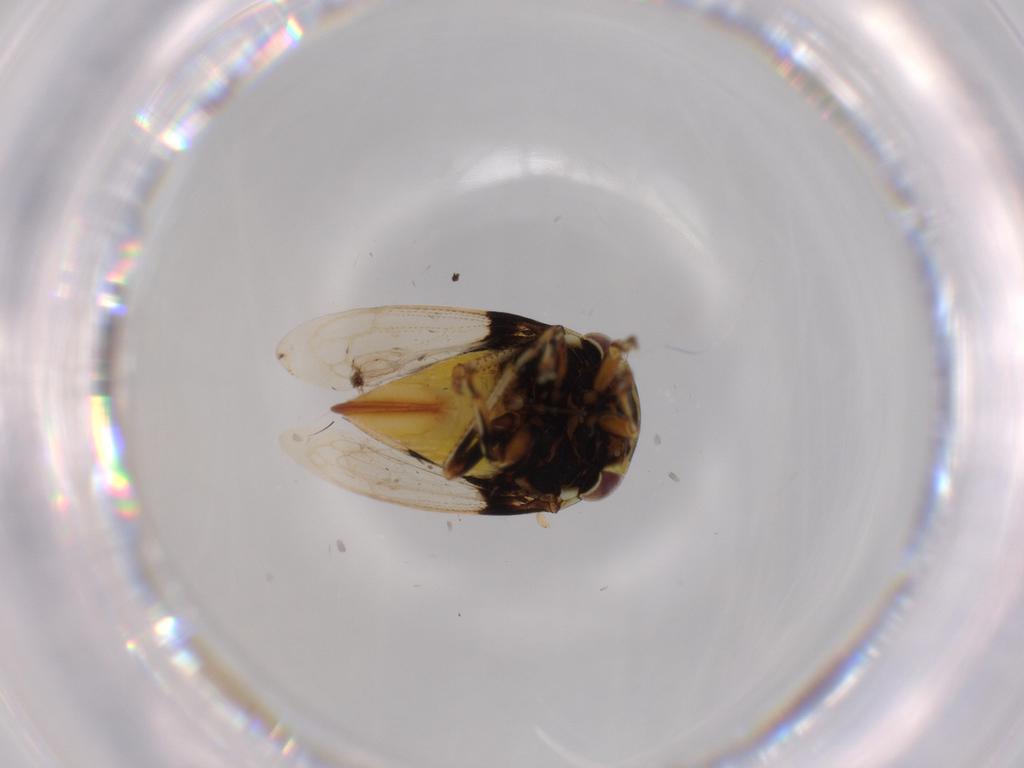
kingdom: Animalia
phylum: Arthropoda
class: Insecta
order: Hemiptera
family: Membracidae
